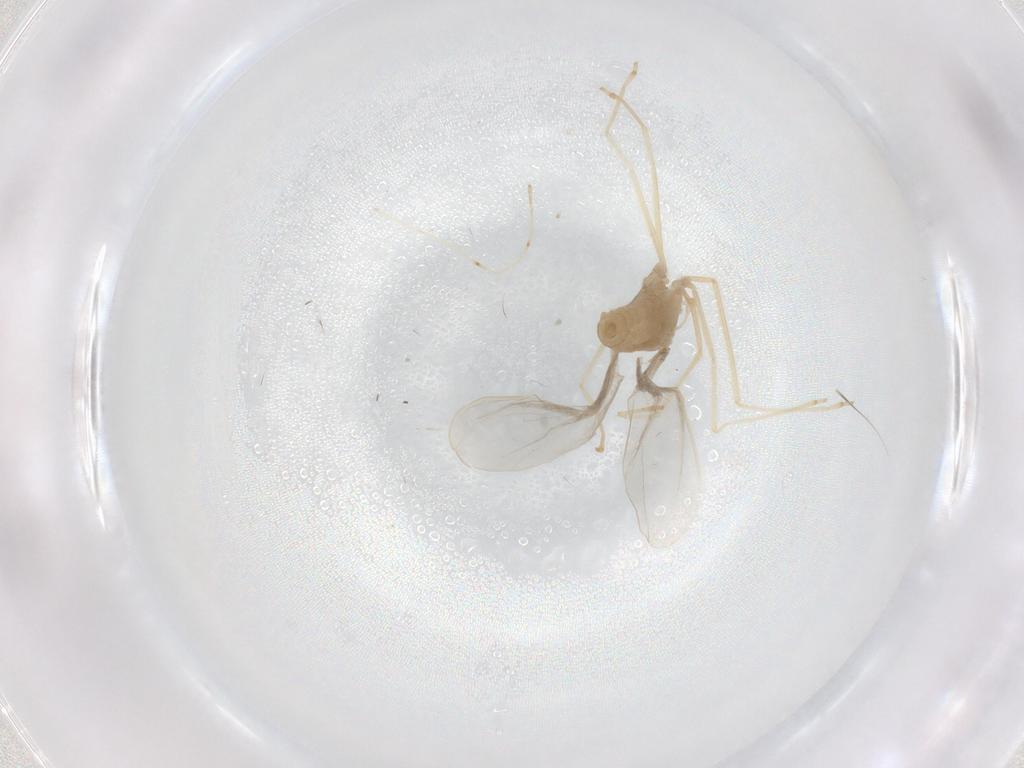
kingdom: Animalia
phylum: Arthropoda
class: Insecta
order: Diptera
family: Cecidomyiidae
